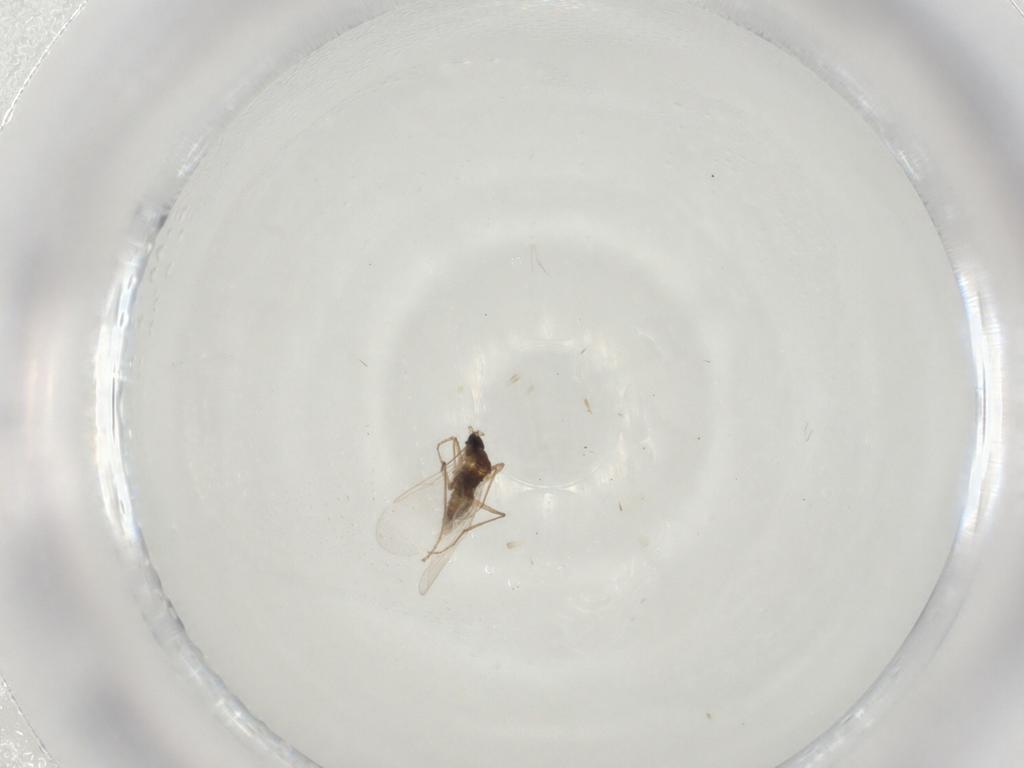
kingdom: Animalia
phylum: Arthropoda
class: Insecta
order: Diptera
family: Cecidomyiidae
